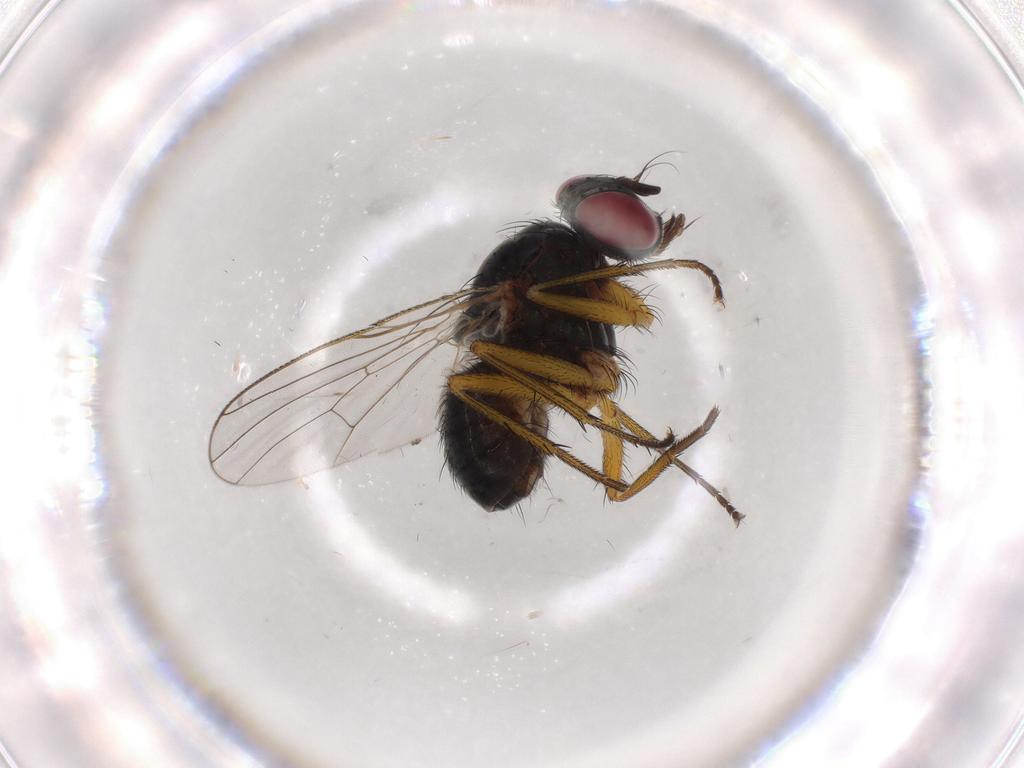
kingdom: Animalia
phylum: Arthropoda
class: Insecta
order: Diptera
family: Muscidae
